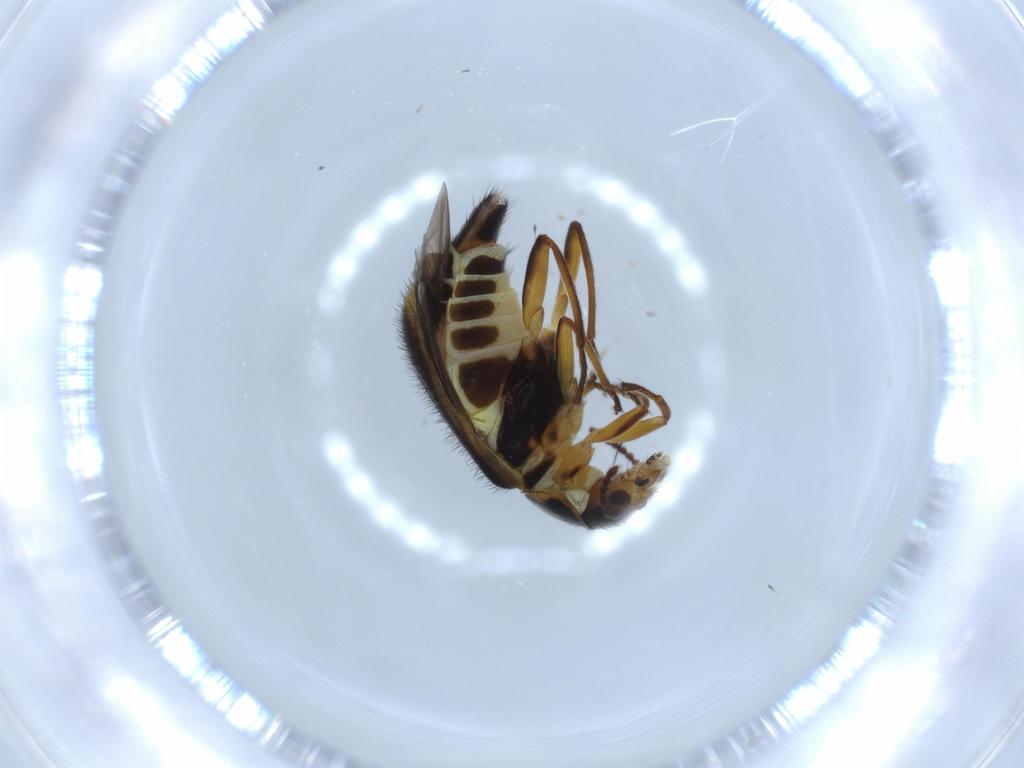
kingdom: Animalia
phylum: Arthropoda
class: Insecta
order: Coleoptera
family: Melyridae
